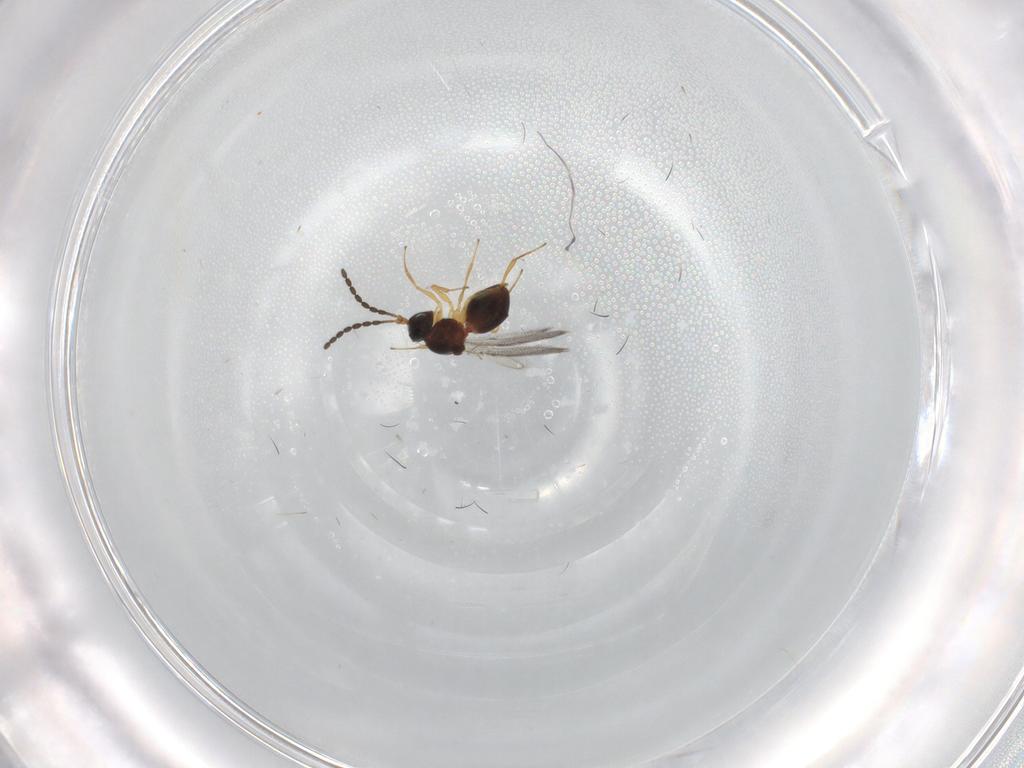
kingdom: Animalia
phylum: Arthropoda
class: Insecta
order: Hymenoptera
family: Figitidae
